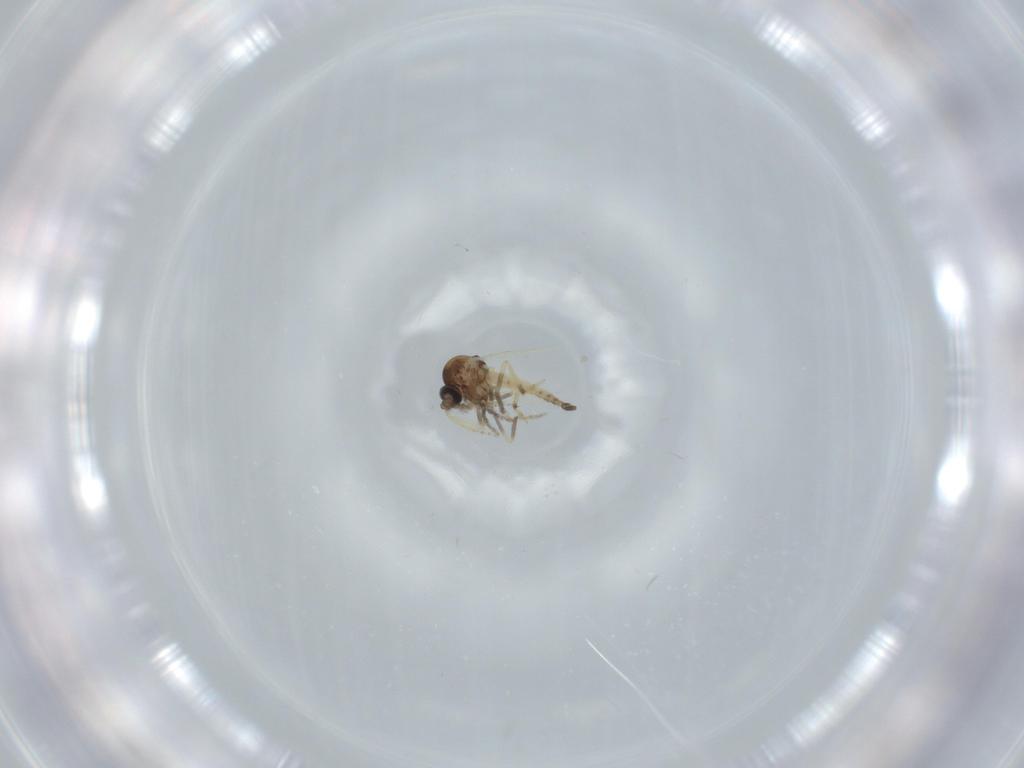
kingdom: Animalia
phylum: Arthropoda
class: Insecta
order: Diptera
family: Ceratopogonidae
